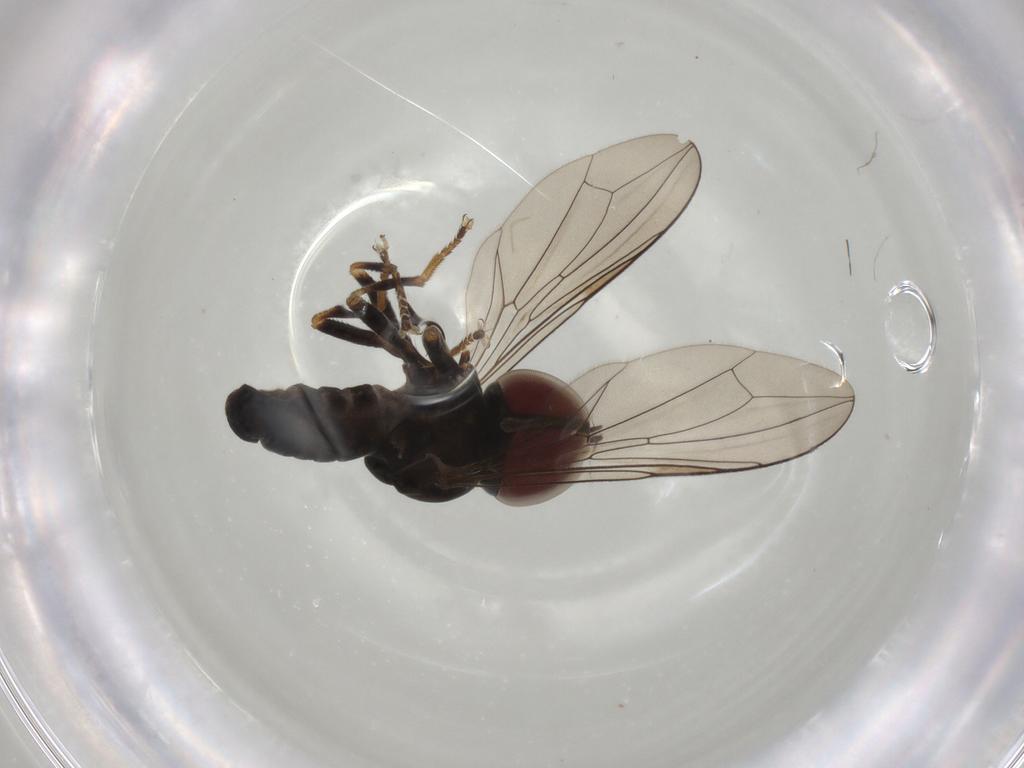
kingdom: Animalia
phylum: Arthropoda
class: Insecta
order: Diptera
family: Pipunculidae
